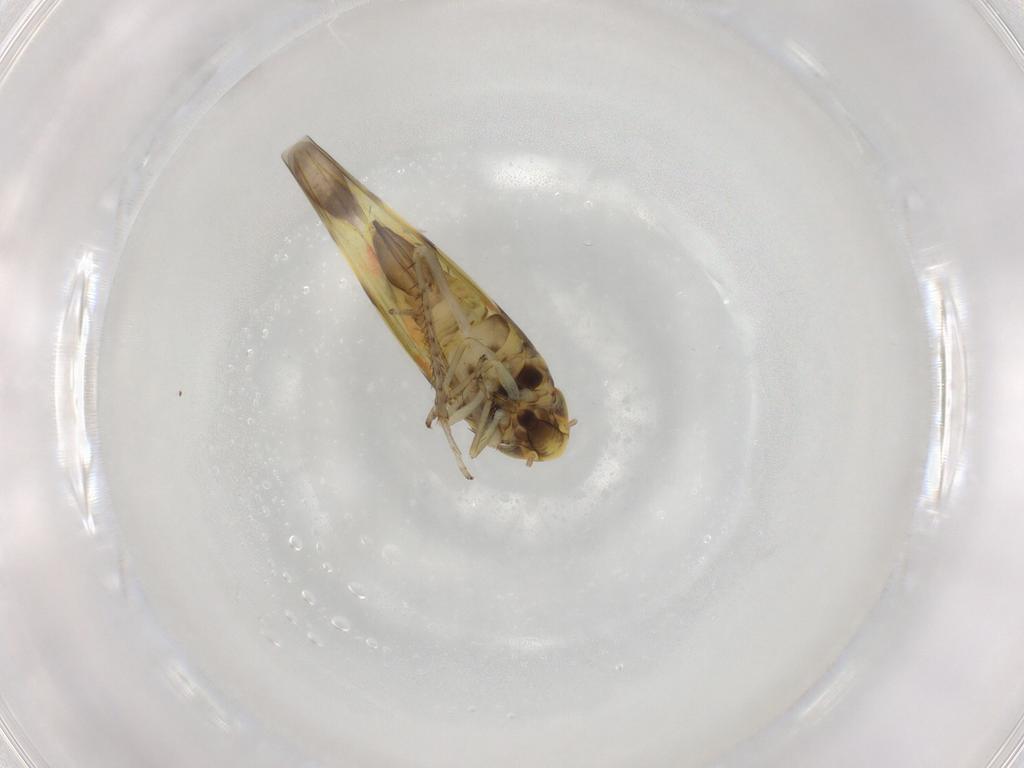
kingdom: Animalia
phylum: Arthropoda
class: Insecta
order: Hemiptera
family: Cicadellidae
